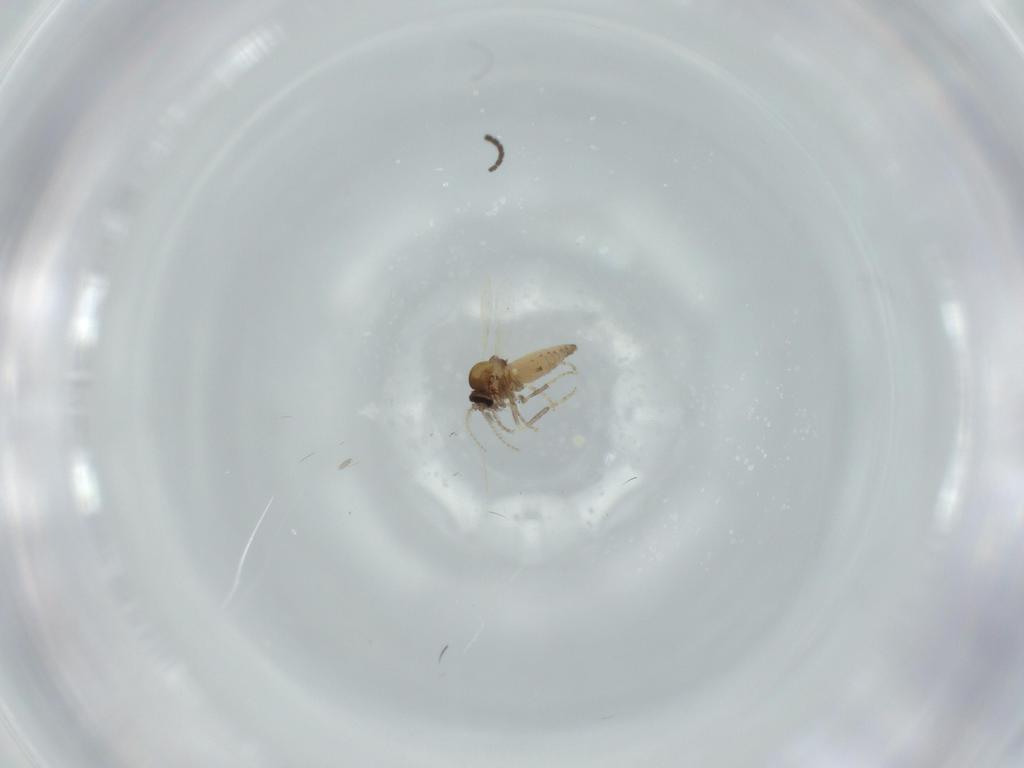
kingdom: Animalia
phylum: Arthropoda
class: Insecta
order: Diptera
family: Ceratopogonidae
